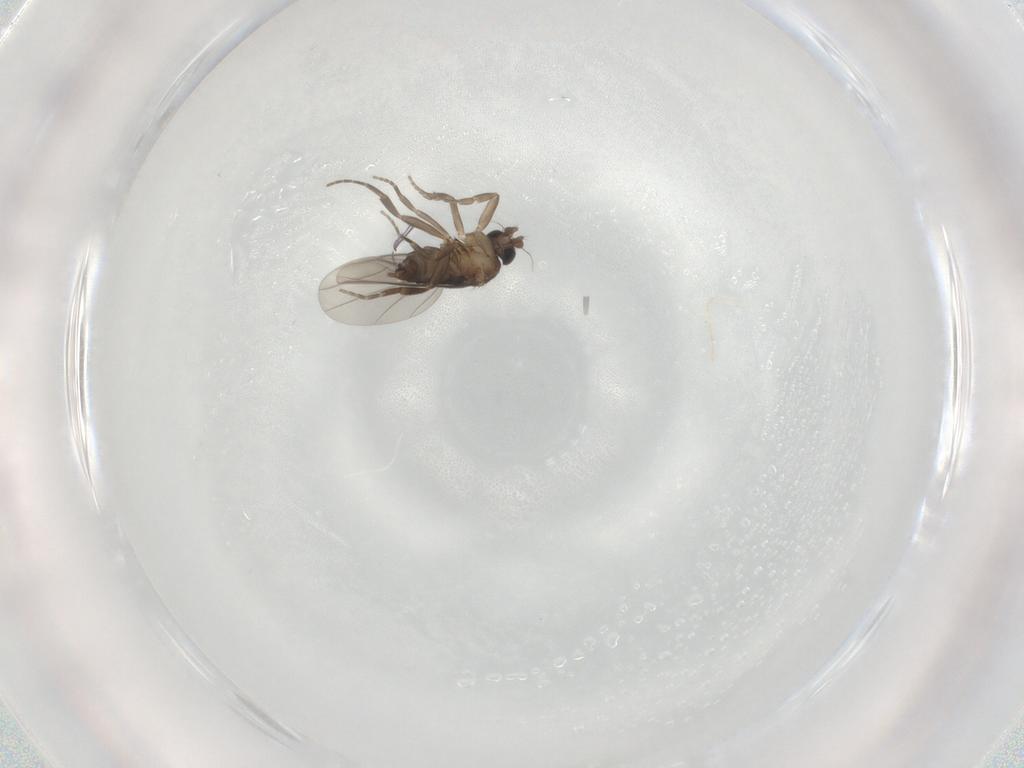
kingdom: Animalia
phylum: Arthropoda
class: Insecta
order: Diptera
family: Phoridae
